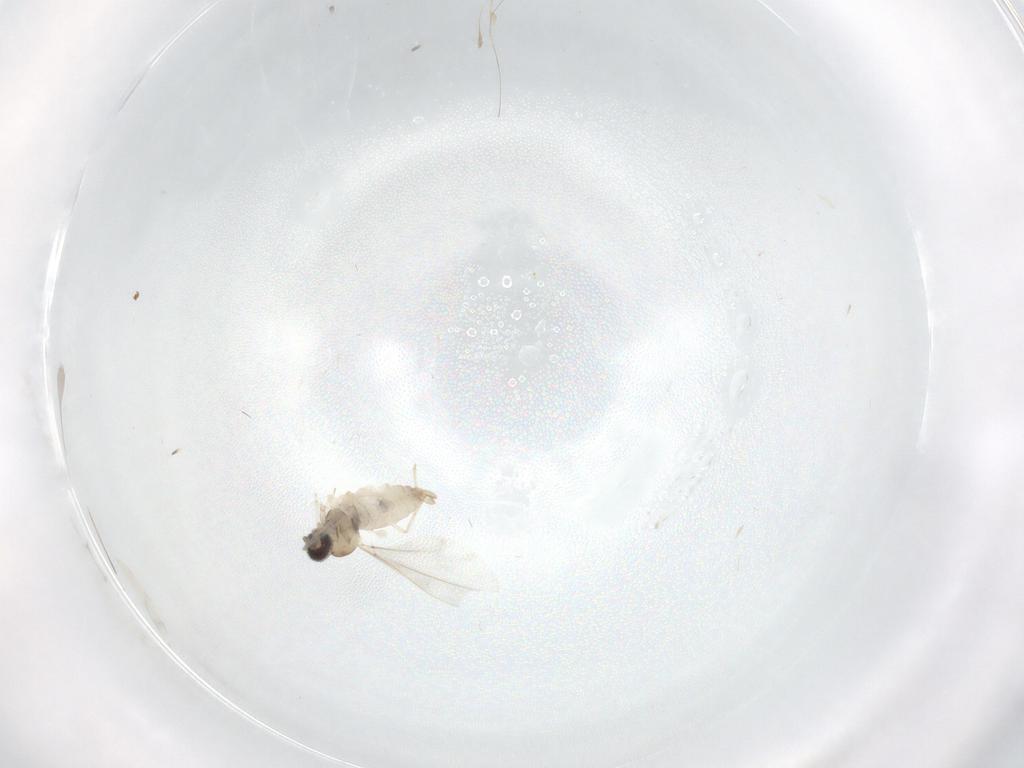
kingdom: Animalia
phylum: Arthropoda
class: Insecta
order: Diptera
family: Cecidomyiidae
